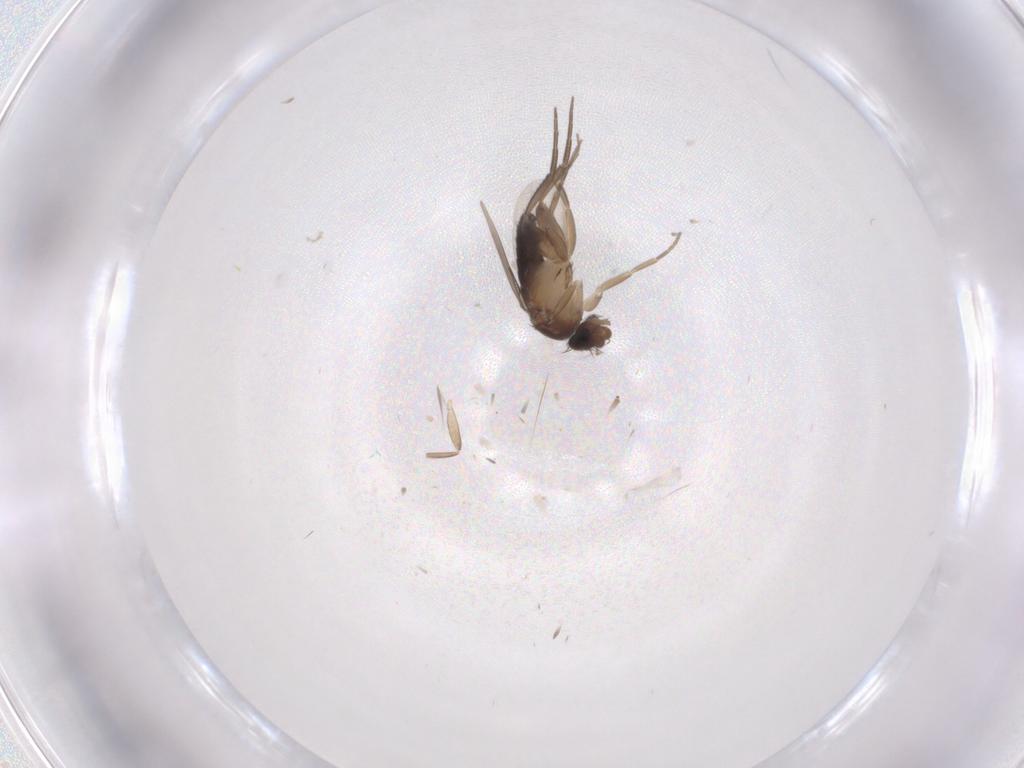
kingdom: Animalia
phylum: Arthropoda
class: Insecta
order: Diptera
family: Phoridae
